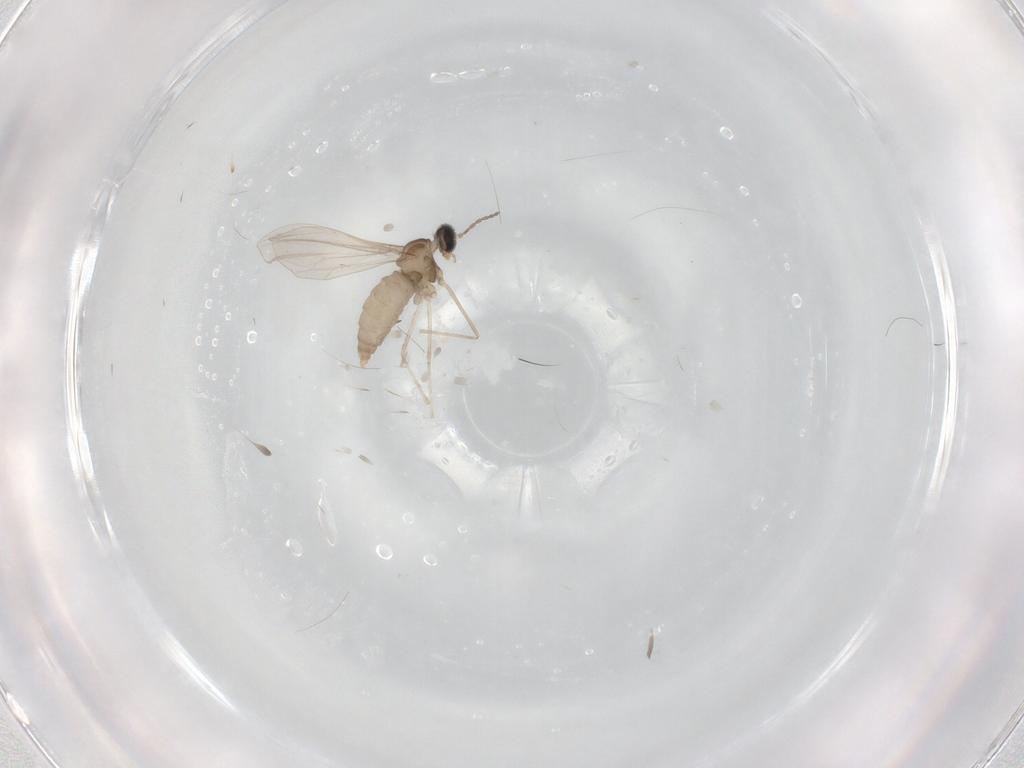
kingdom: Animalia
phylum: Arthropoda
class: Insecta
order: Diptera
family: Cecidomyiidae
